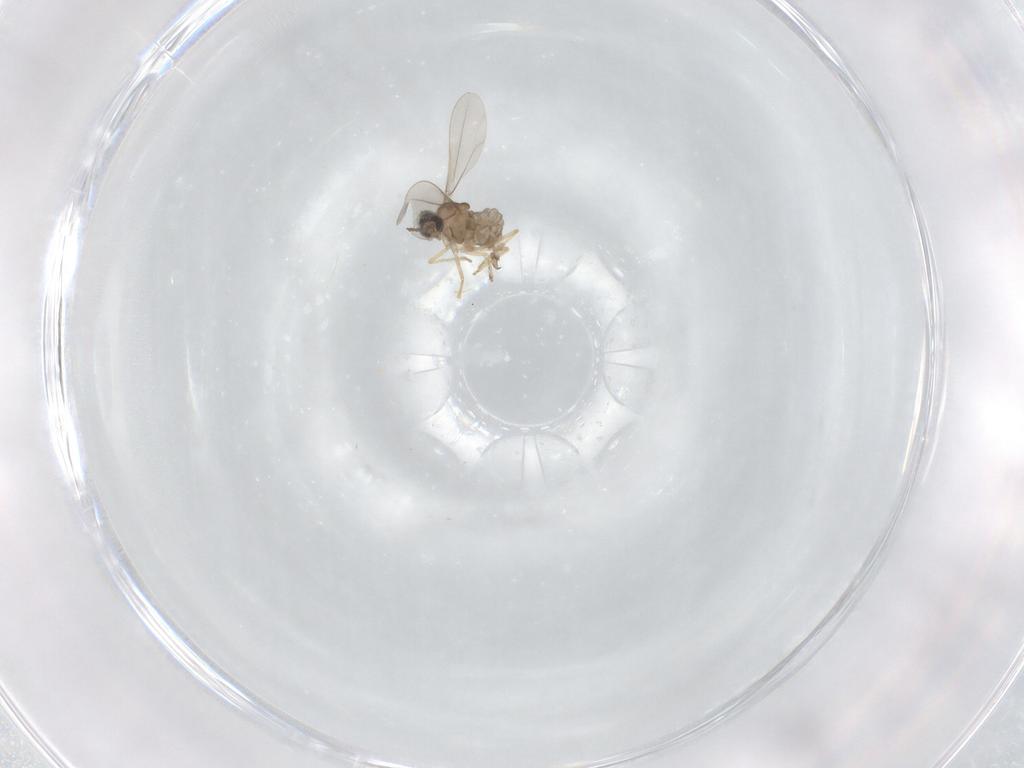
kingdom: Animalia
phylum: Arthropoda
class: Insecta
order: Diptera
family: Cecidomyiidae
